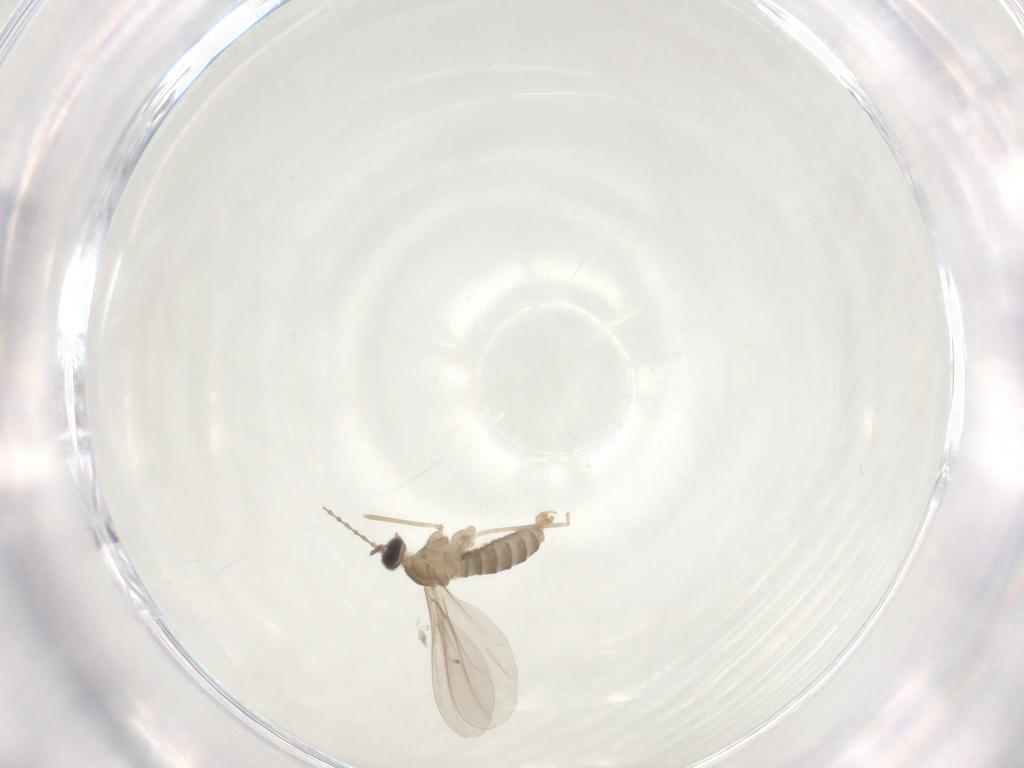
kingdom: Animalia
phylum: Arthropoda
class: Insecta
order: Diptera
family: Cecidomyiidae
